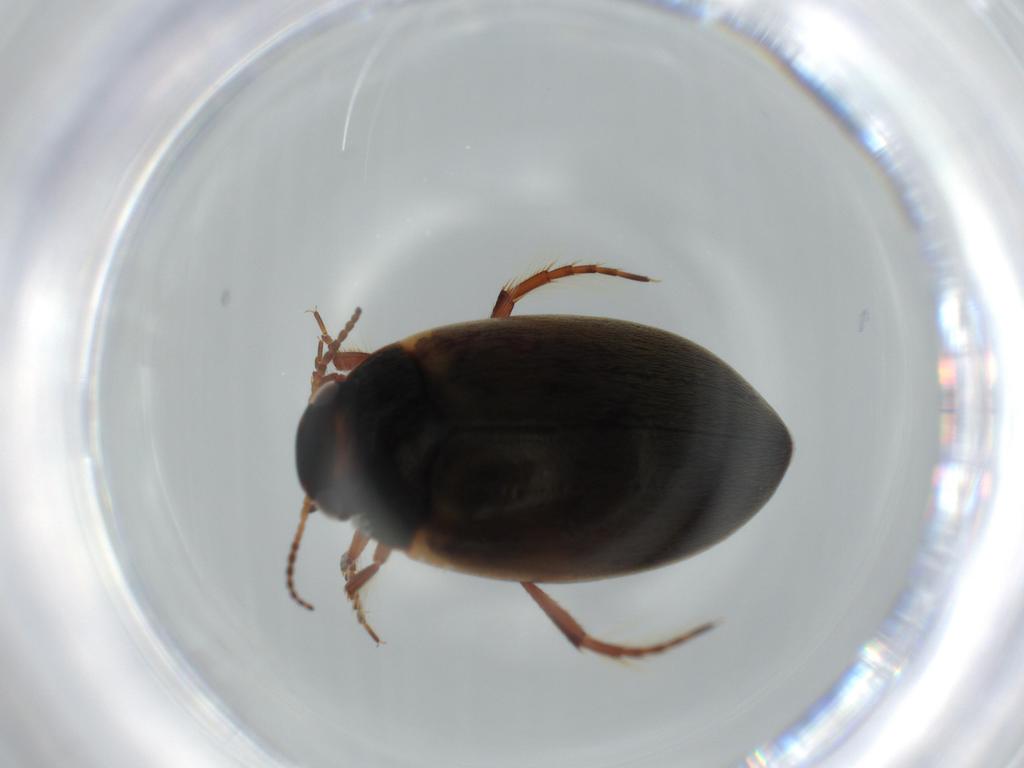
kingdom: Animalia
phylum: Arthropoda
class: Insecta
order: Coleoptera
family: Dytiscidae
